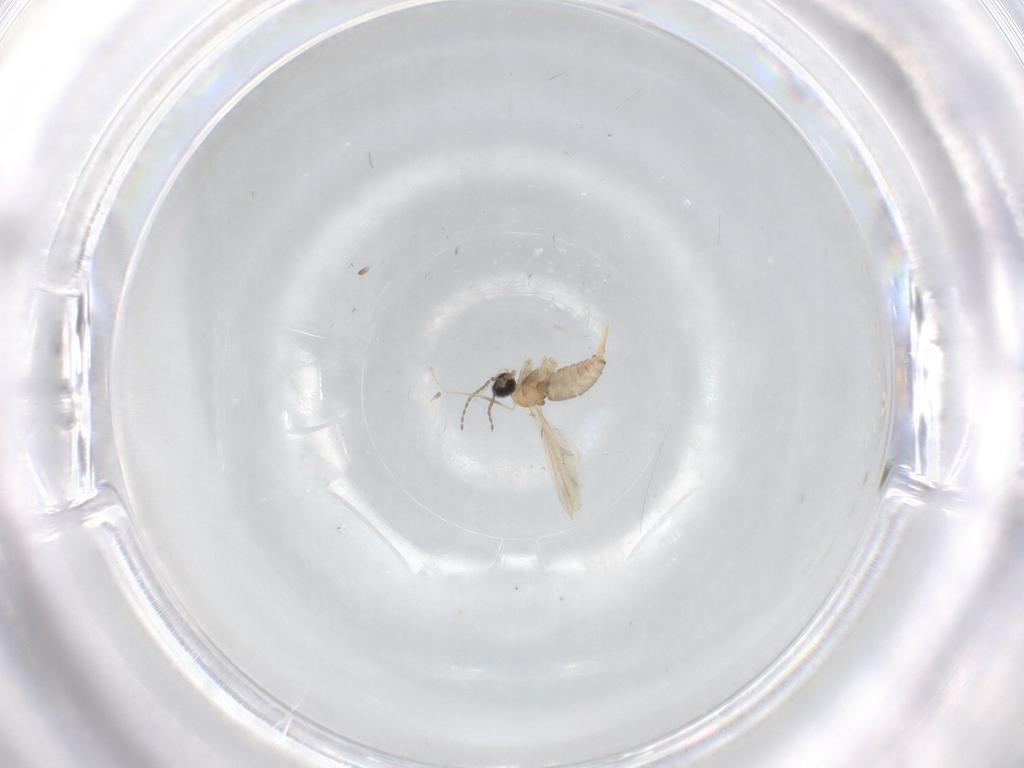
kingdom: Animalia
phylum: Arthropoda
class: Insecta
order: Diptera
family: Cecidomyiidae
